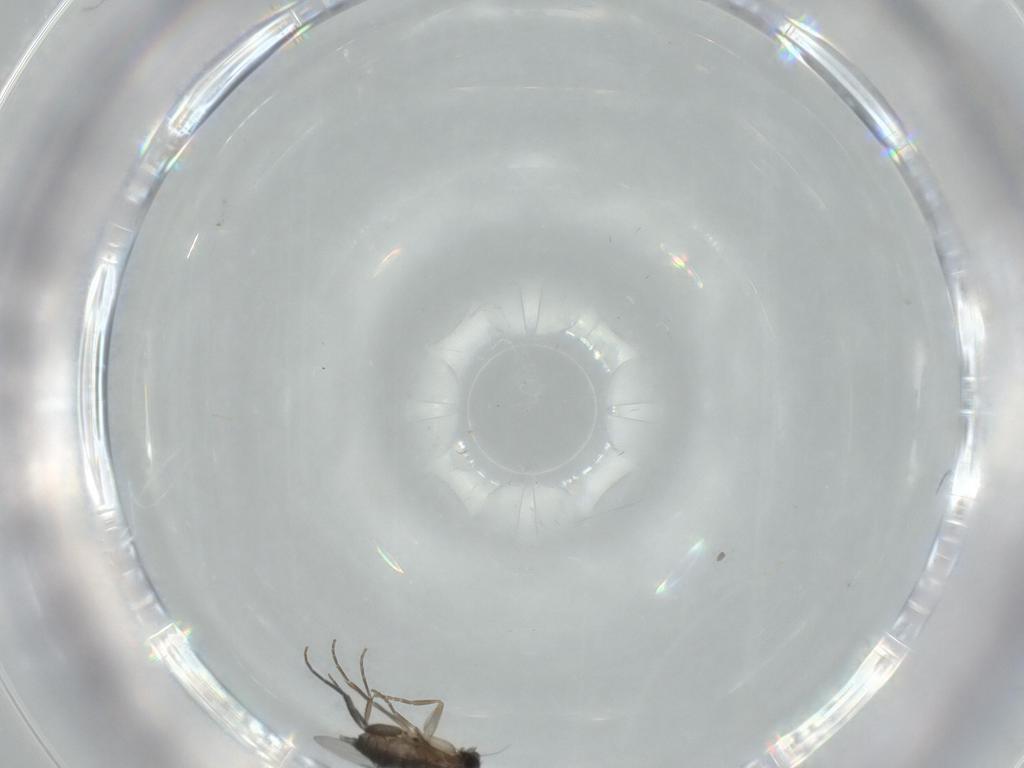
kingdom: Animalia
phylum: Arthropoda
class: Insecta
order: Diptera
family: Phoridae
